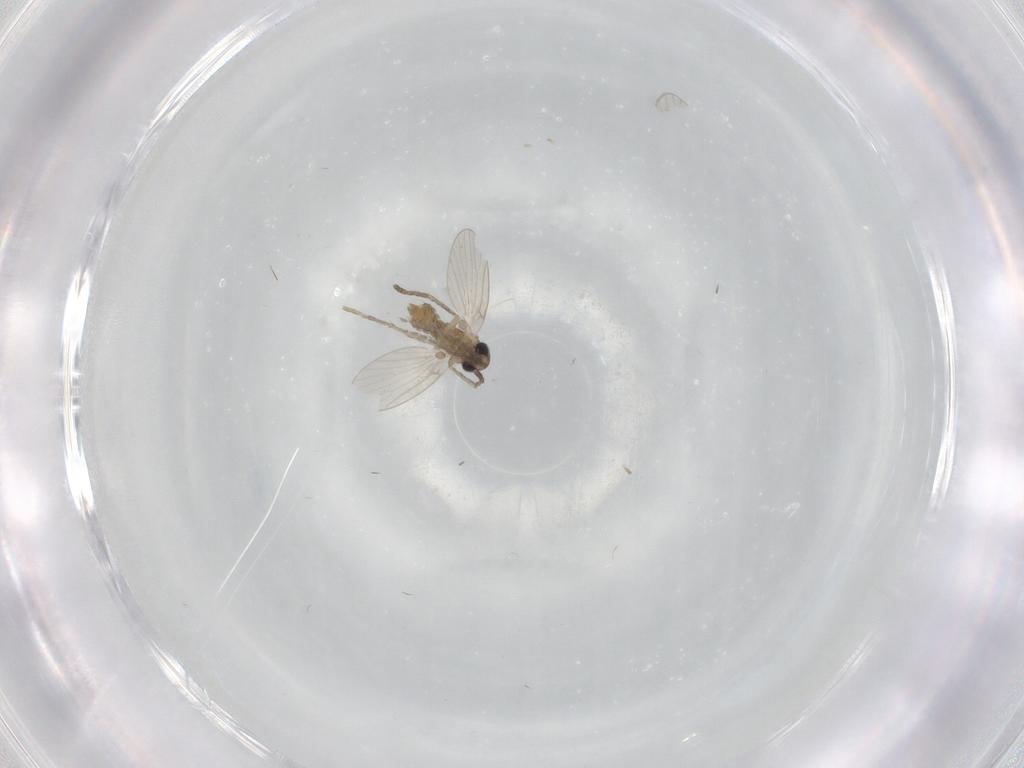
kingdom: Animalia
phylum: Arthropoda
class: Insecta
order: Diptera
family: Psychodidae
